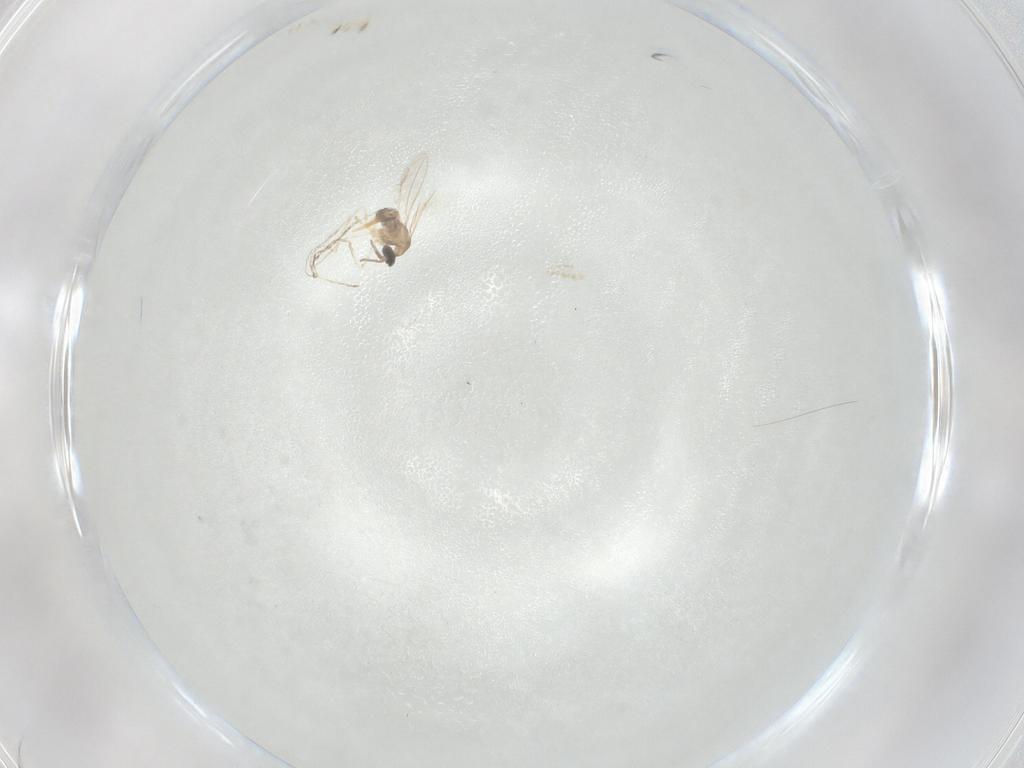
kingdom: Animalia
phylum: Arthropoda
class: Insecta
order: Diptera
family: Cecidomyiidae
